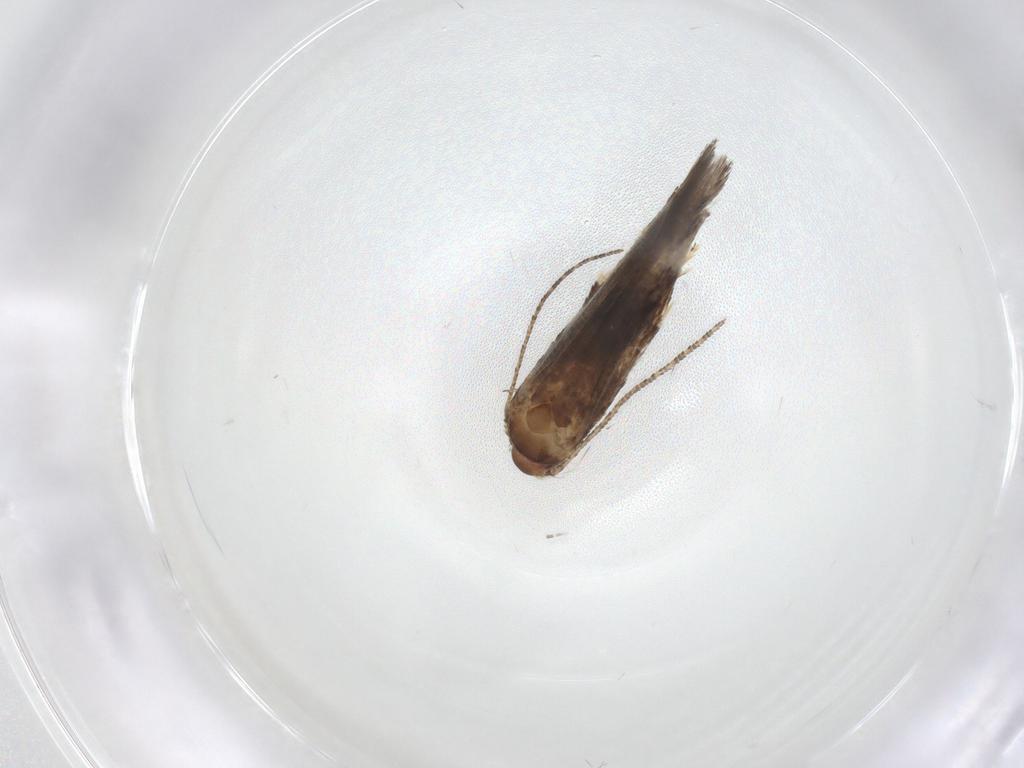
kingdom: Animalia
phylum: Arthropoda
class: Insecta
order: Lepidoptera
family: Momphidae
